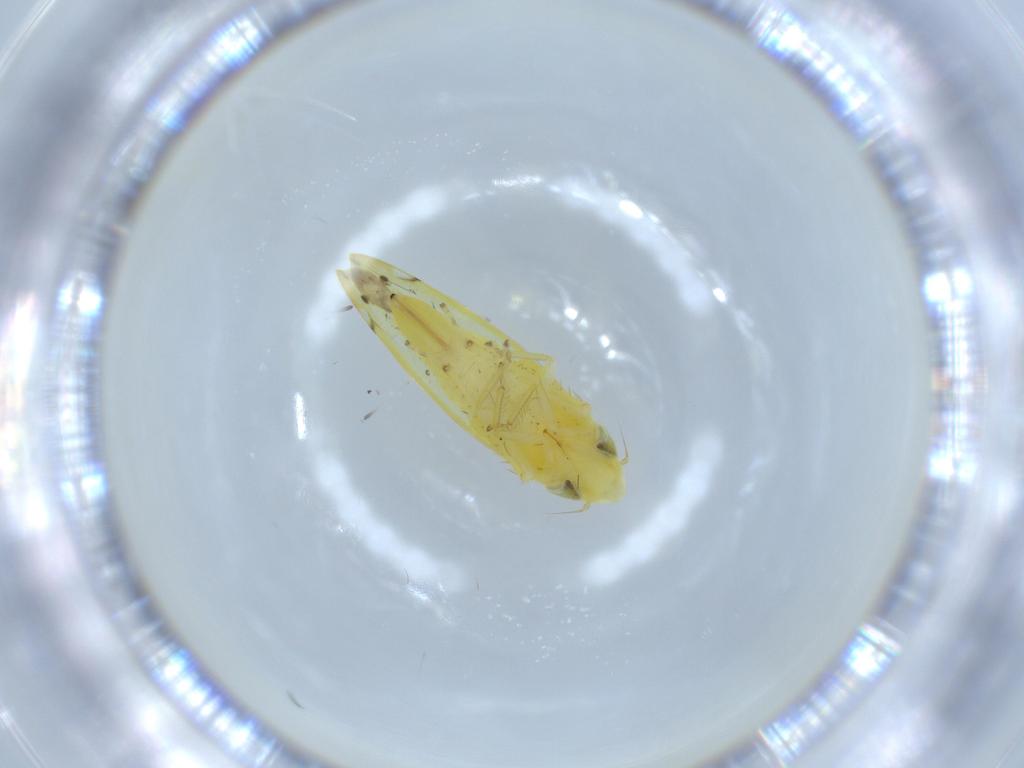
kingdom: Animalia
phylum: Arthropoda
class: Insecta
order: Hemiptera
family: Cicadellidae
